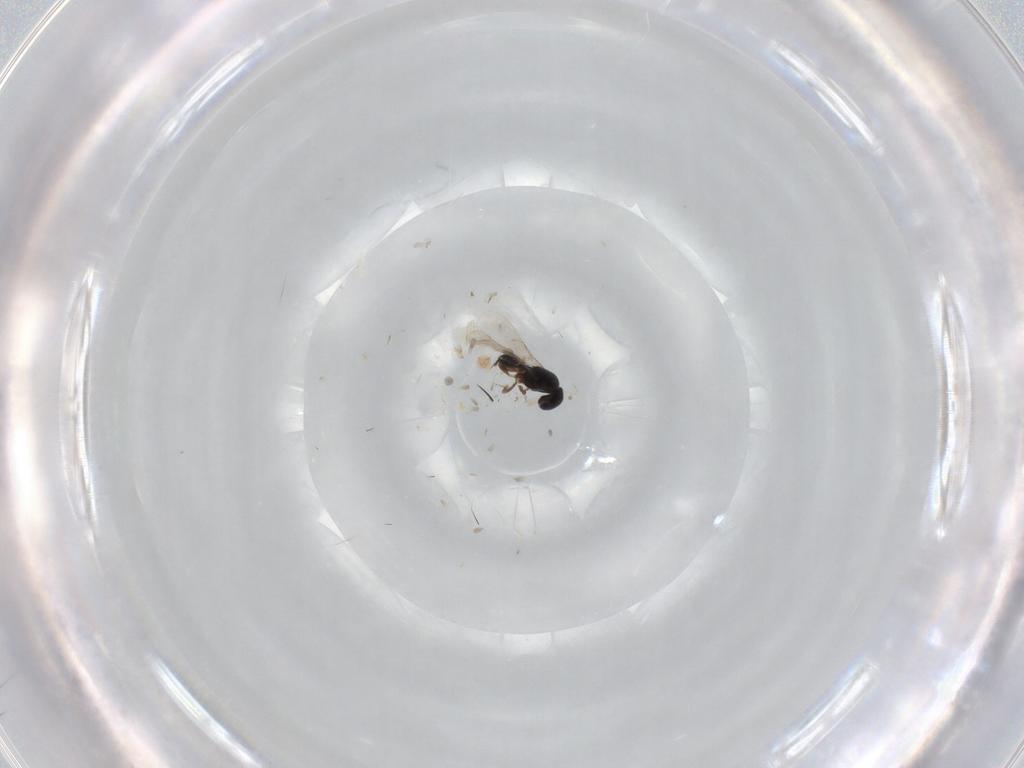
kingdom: Animalia
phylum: Arthropoda
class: Insecta
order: Hymenoptera
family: Scelionidae
